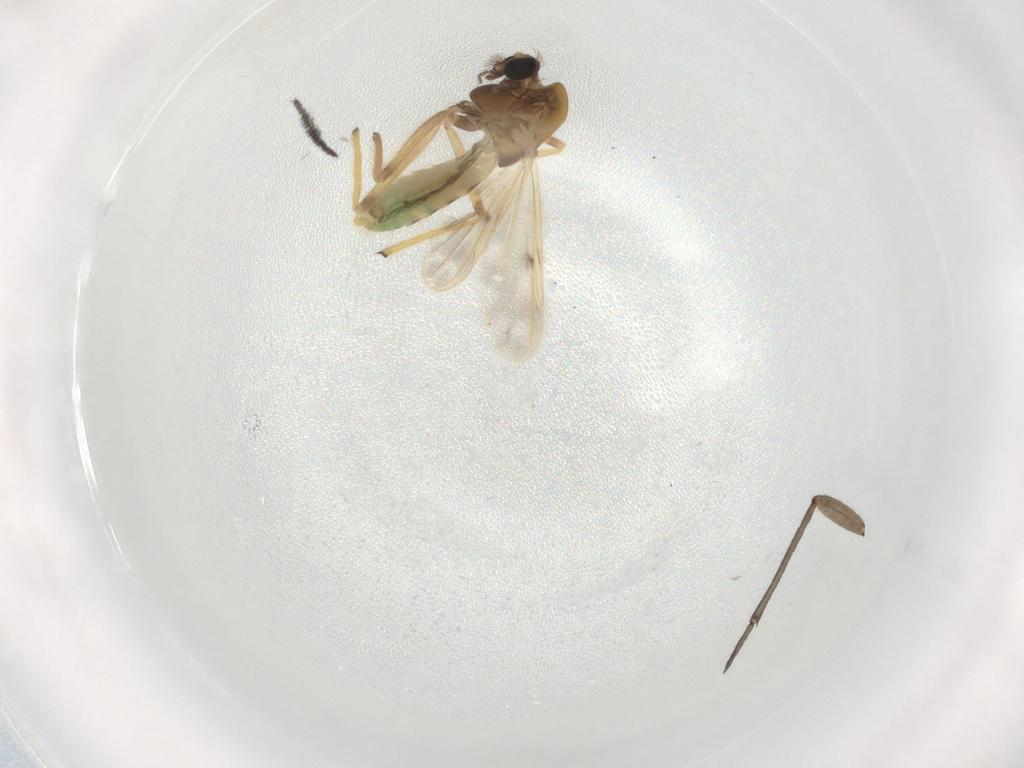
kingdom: Animalia
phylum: Arthropoda
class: Insecta
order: Diptera
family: Chironomidae
